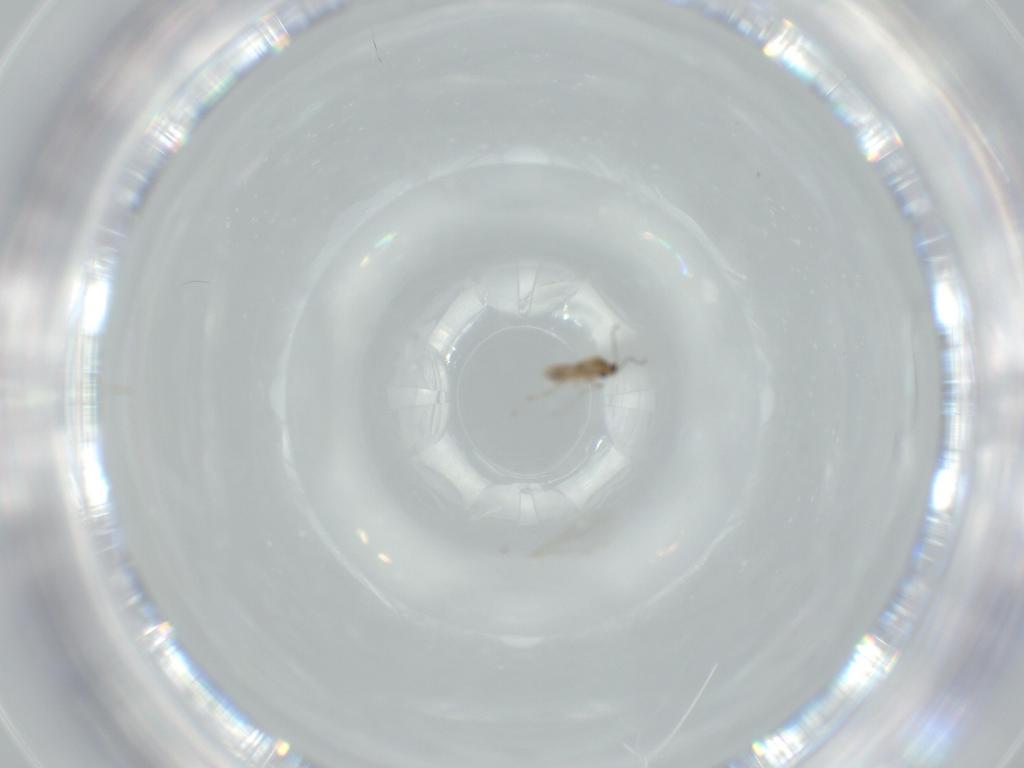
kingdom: Animalia
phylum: Arthropoda
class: Insecta
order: Diptera
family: Cecidomyiidae
